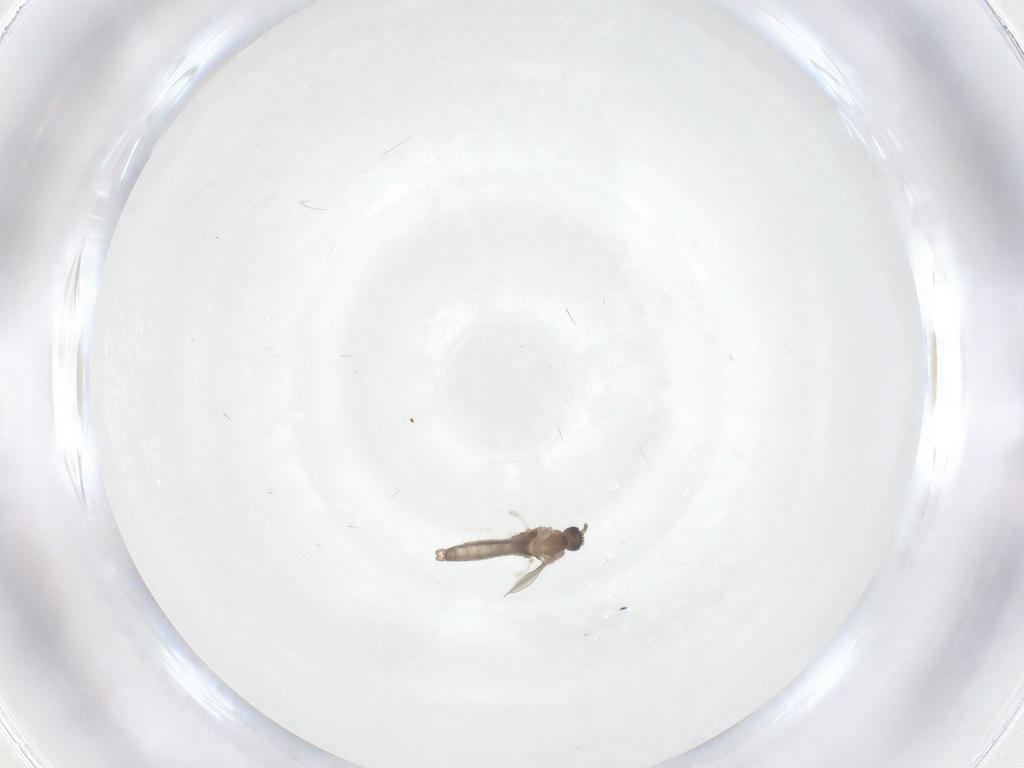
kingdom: Animalia
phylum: Arthropoda
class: Insecta
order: Diptera
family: Chironomidae
